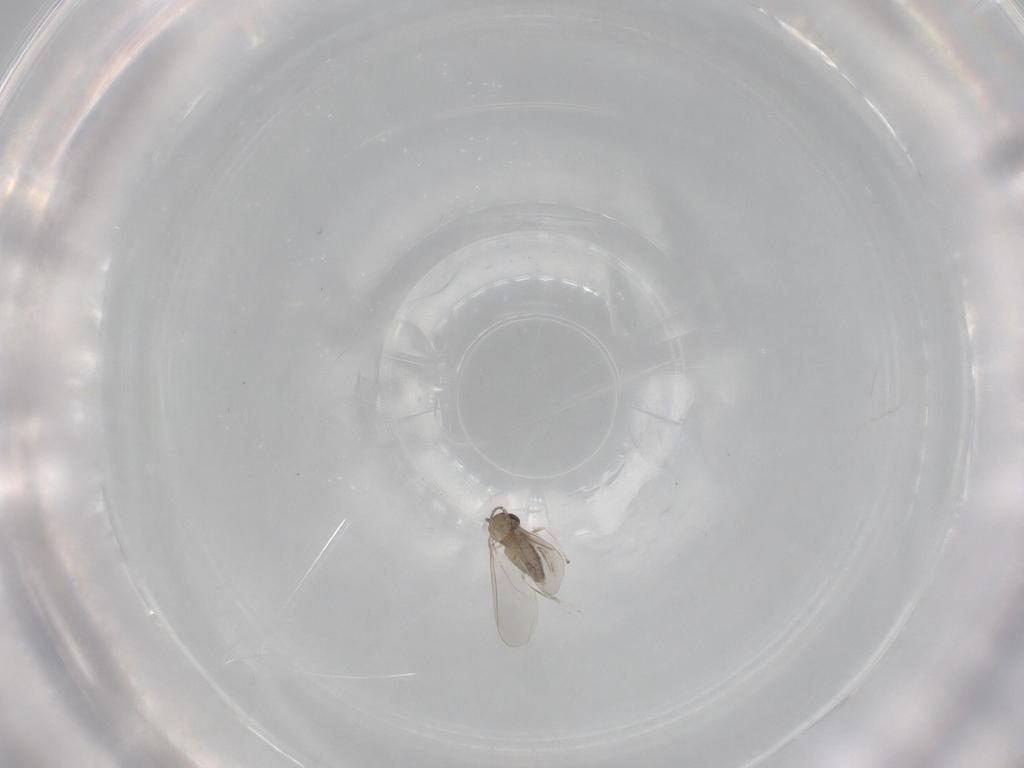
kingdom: Animalia
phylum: Arthropoda
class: Insecta
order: Diptera
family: Cecidomyiidae
